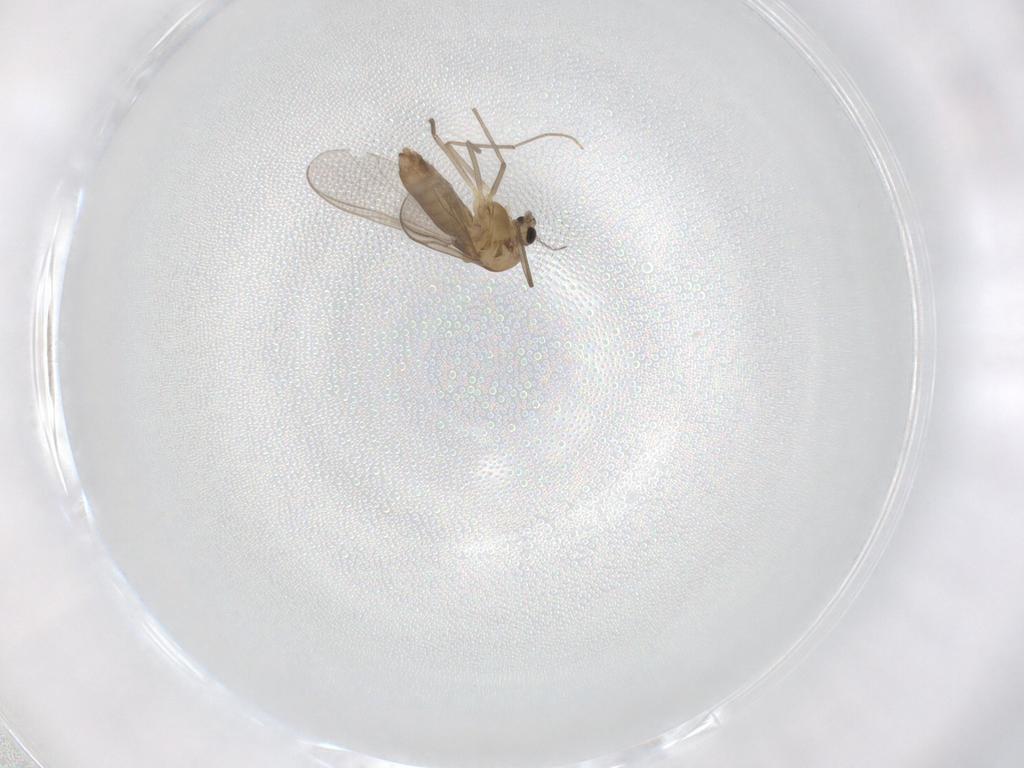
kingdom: Animalia
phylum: Arthropoda
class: Insecta
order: Diptera
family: Chironomidae
